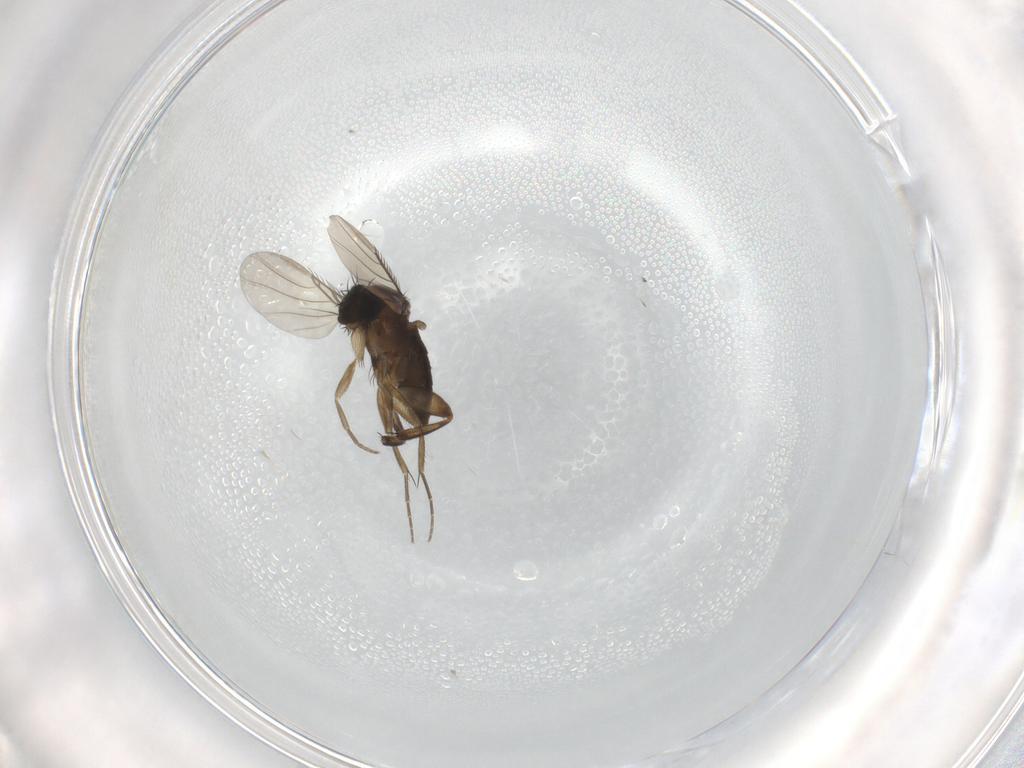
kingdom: Animalia
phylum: Arthropoda
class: Insecta
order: Diptera
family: Phoridae
